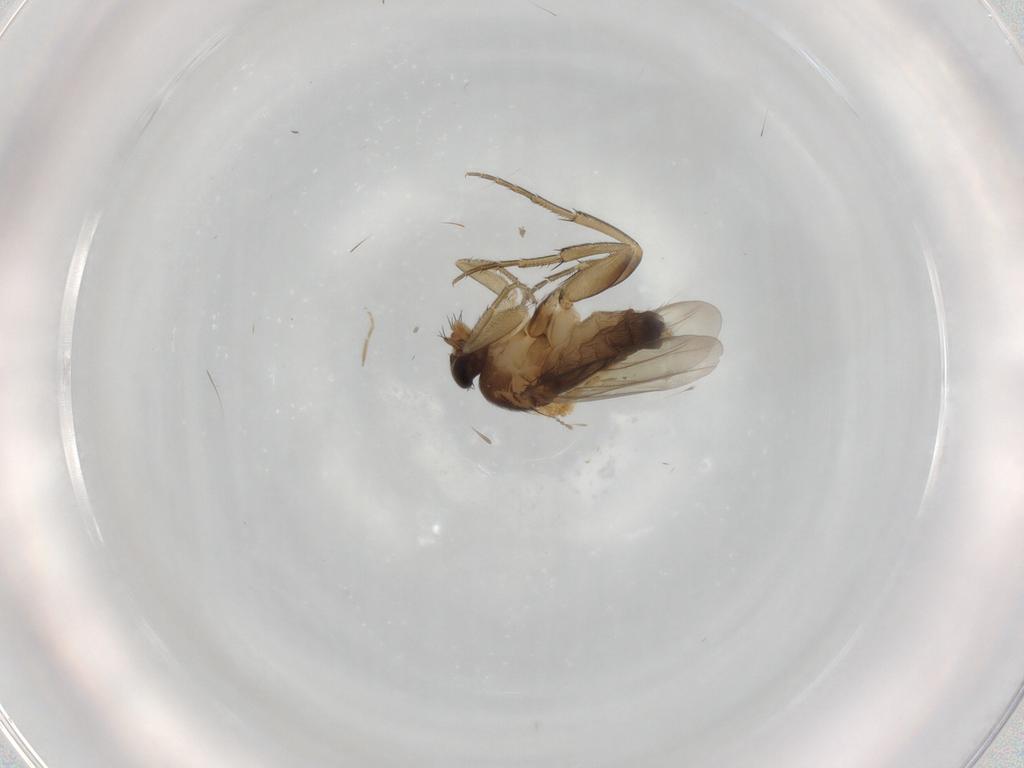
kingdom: Animalia
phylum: Arthropoda
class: Insecta
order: Diptera
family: Phoridae
